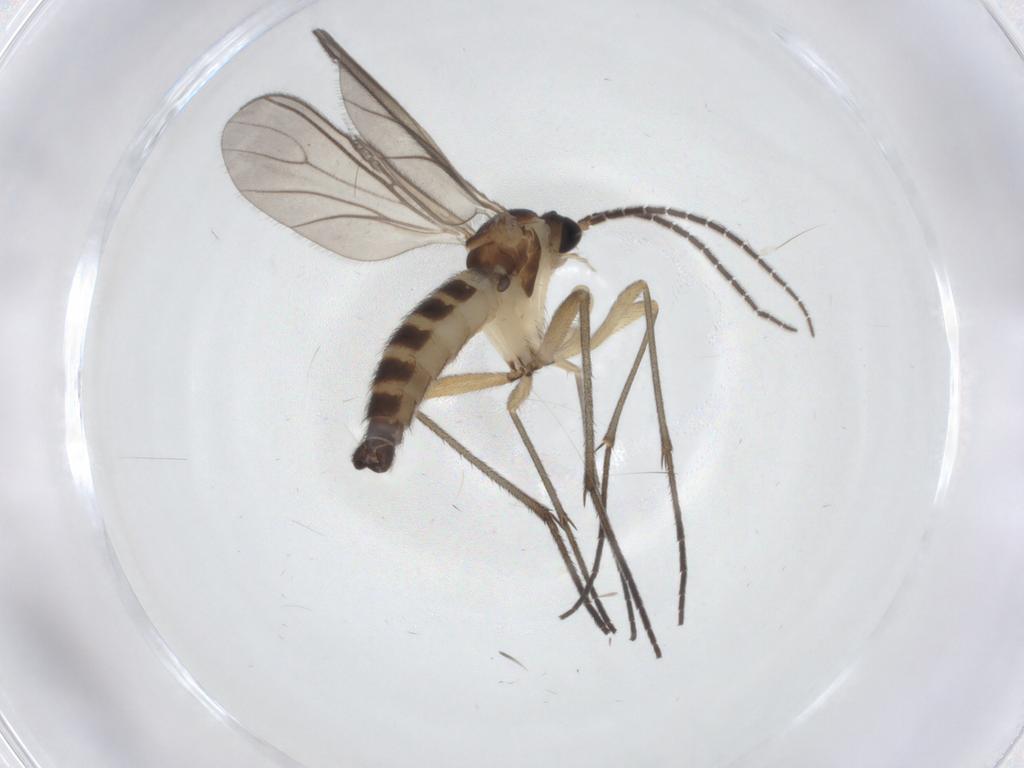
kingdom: Animalia
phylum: Arthropoda
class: Insecta
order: Diptera
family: Sciaridae
